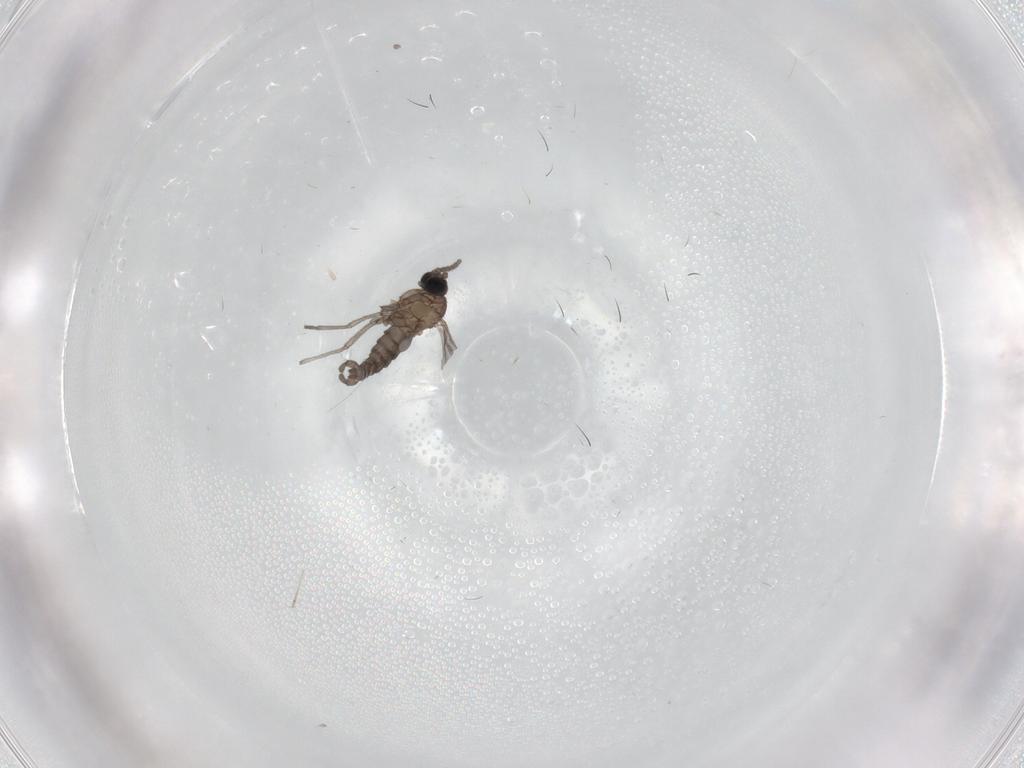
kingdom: Animalia
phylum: Arthropoda
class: Insecta
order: Diptera
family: Sciaridae
